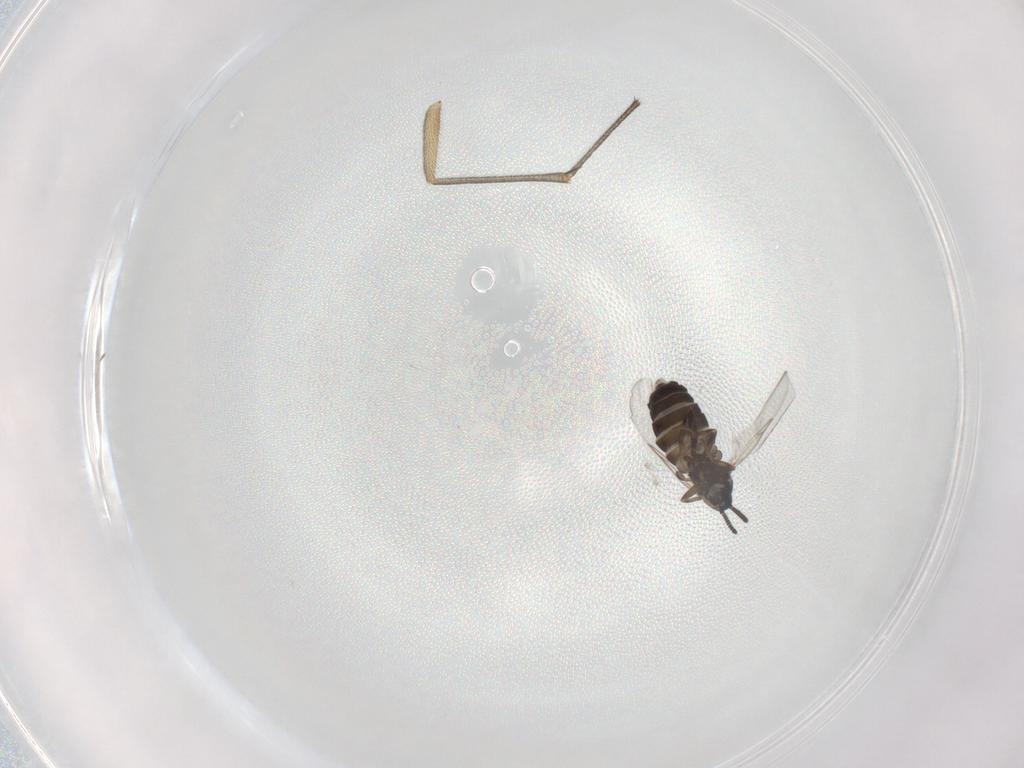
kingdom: Animalia
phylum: Arthropoda
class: Insecta
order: Diptera
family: Scatopsidae
